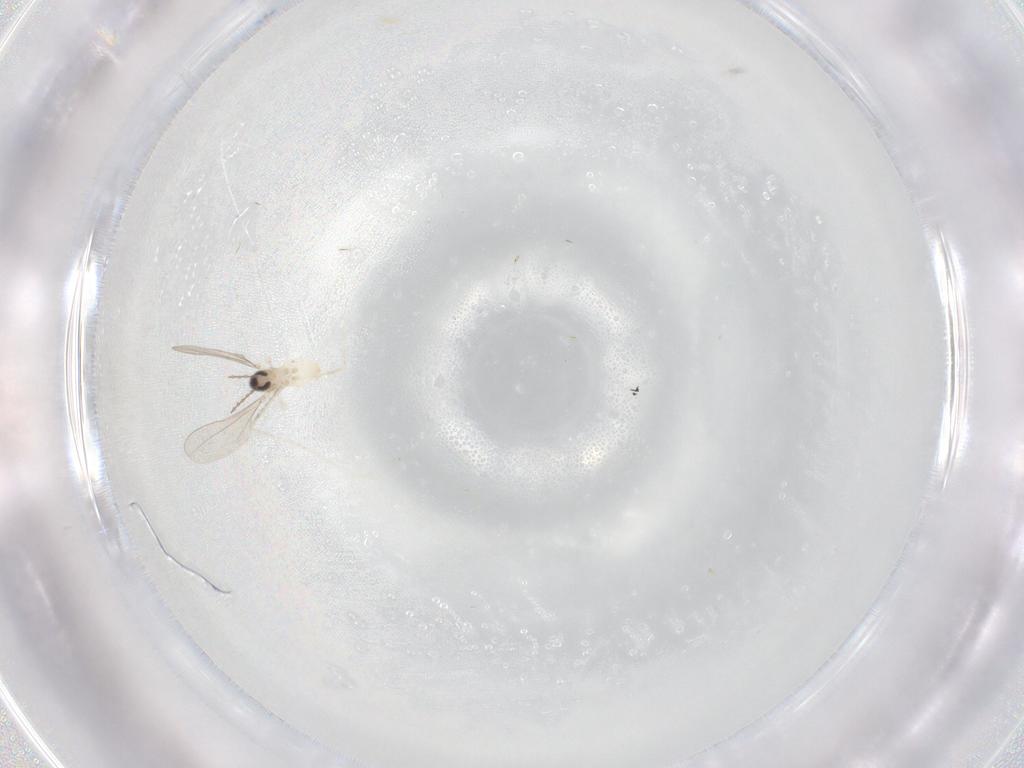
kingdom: Animalia
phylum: Arthropoda
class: Insecta
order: Diptera
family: Cecidomyiidae
